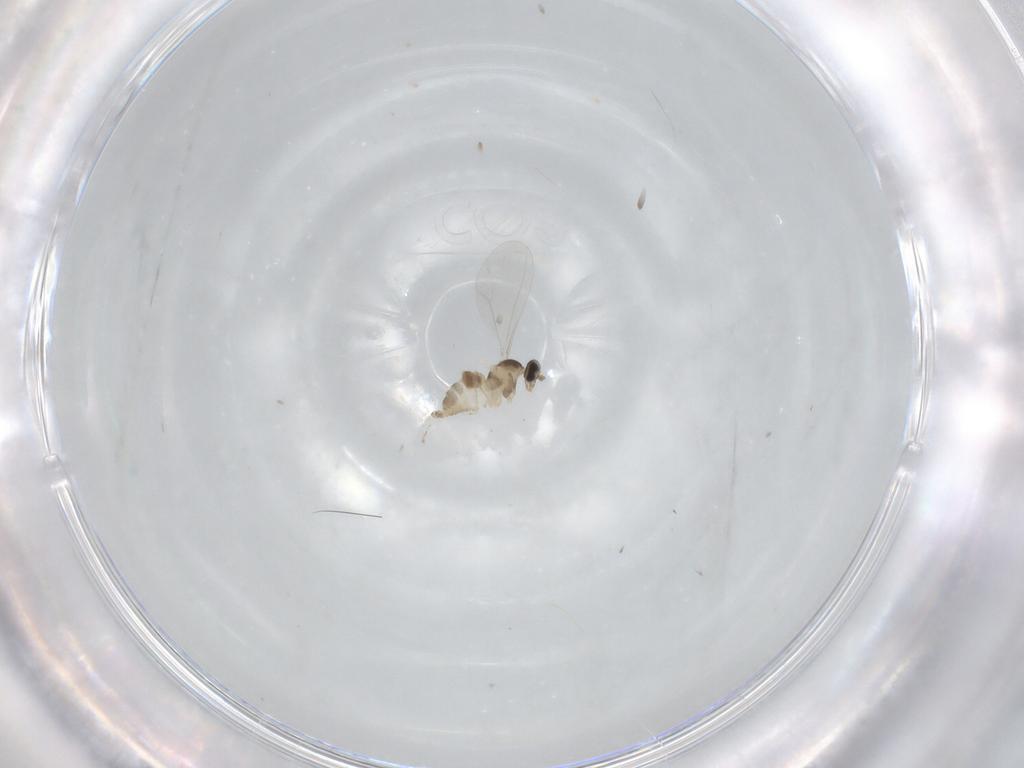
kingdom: Animalia
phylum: Arthropoda
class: Insecta
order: Diptera
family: Cecidomyiidae
